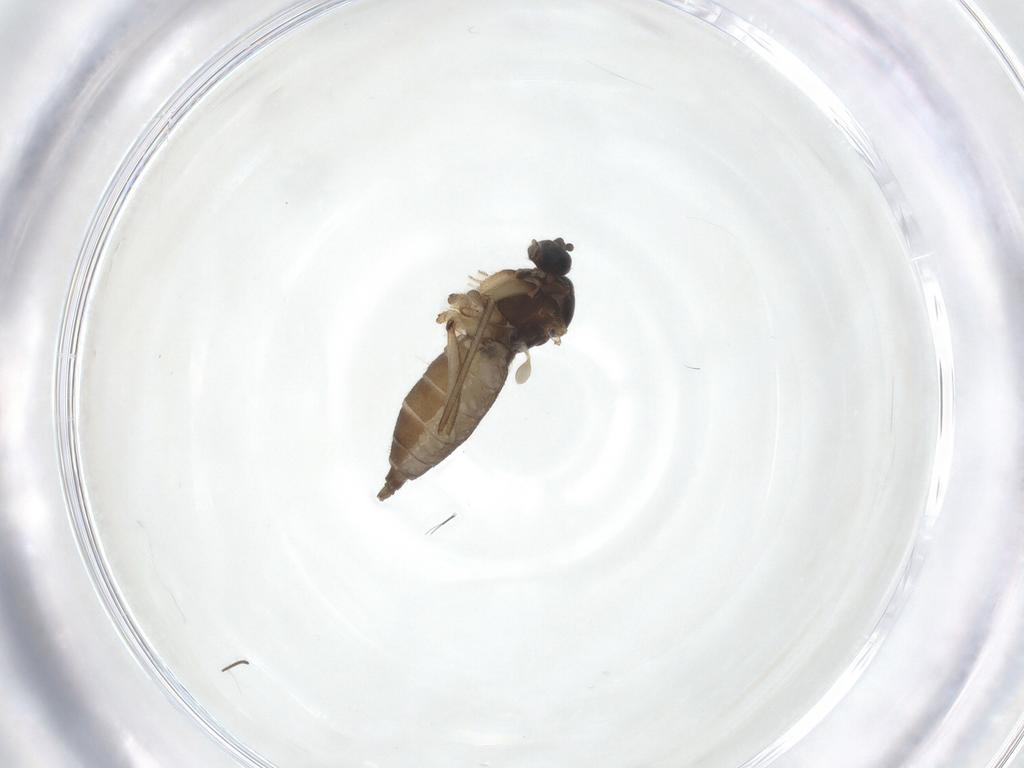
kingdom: Animalia
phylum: Arthropoda
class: Insecta
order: Diptera
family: Sciaridae
